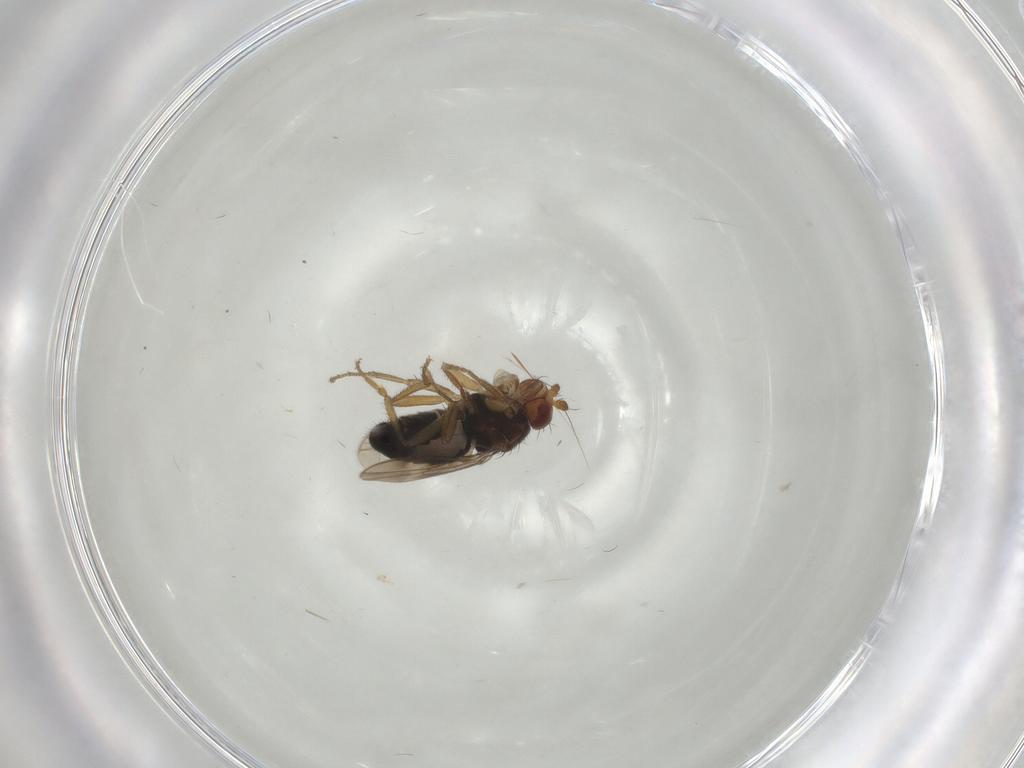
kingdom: Animalia
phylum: Arthropoda
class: Insecta
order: Diptera
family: Sphaeroceridae
